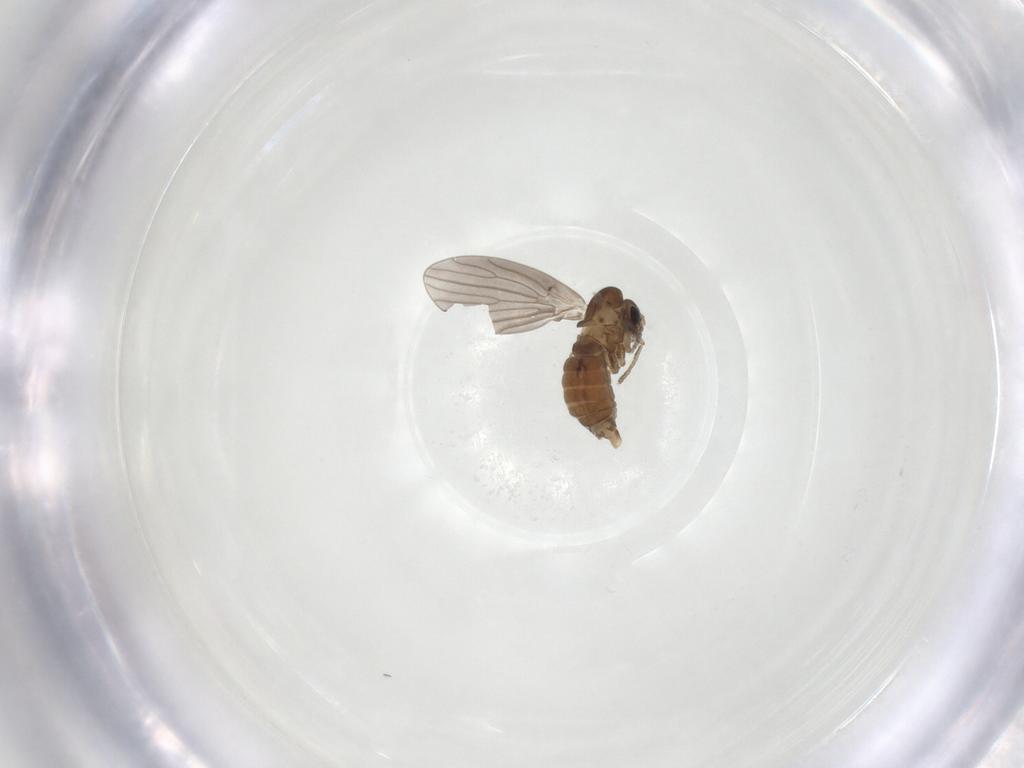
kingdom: Animalia
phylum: Arthropoda
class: Insecta
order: Diptera
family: Psychodidae
